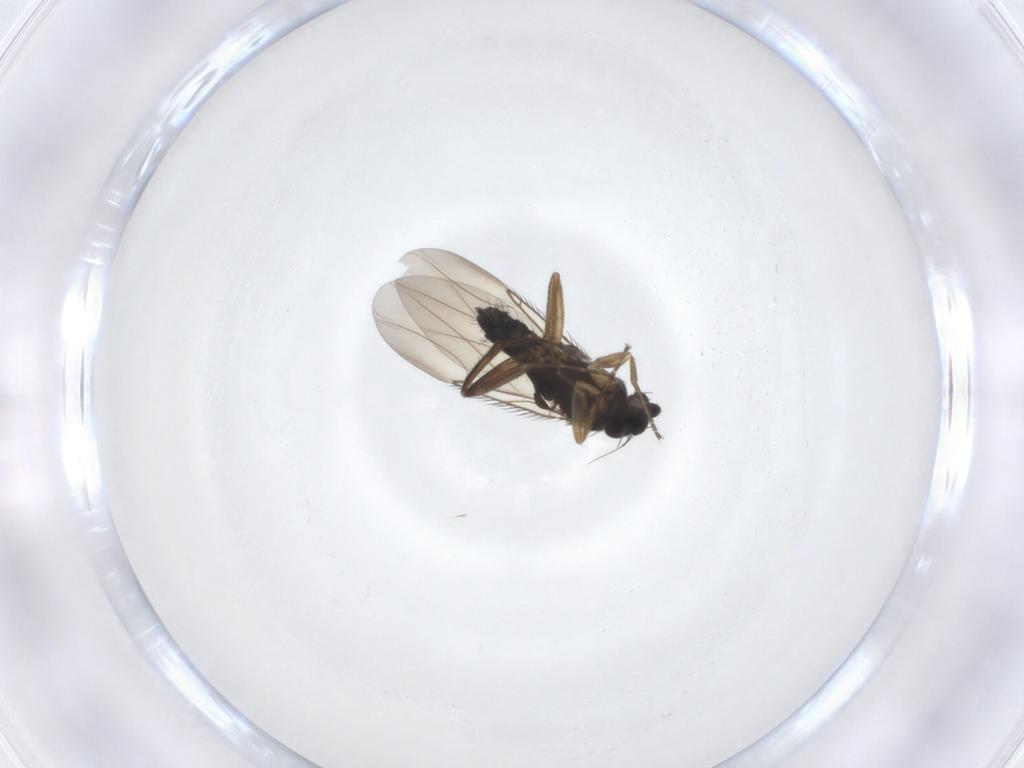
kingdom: Animalia
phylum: Arthropoda
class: Insecta
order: Diptera
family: Phoridae
